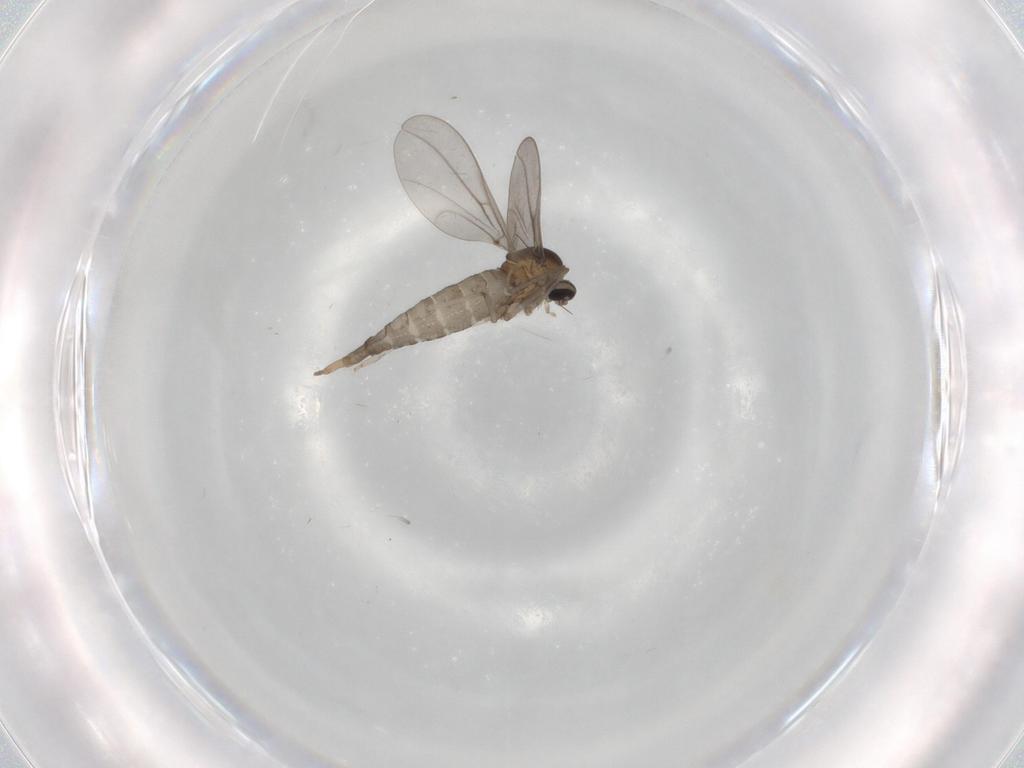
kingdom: Animalia
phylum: Arthropoda
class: Insecta
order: Diptera
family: Cecidomyiidae
